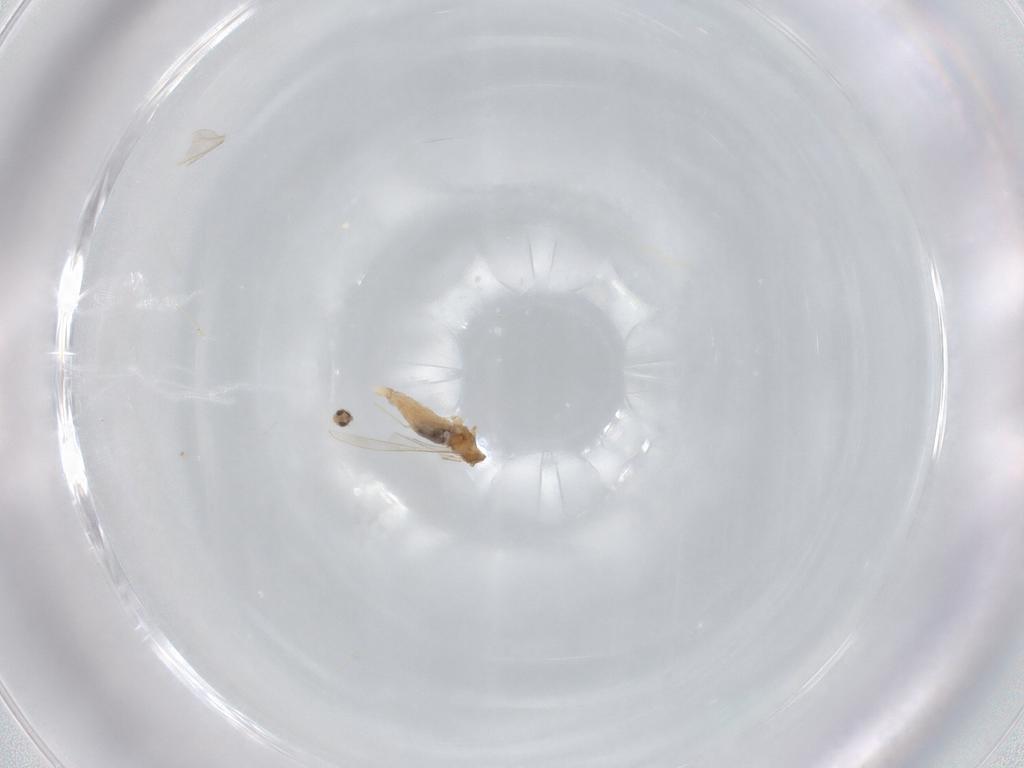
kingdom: Animalia
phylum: Arthropoda
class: Insecta
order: Diptera
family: Cecidomyiidae
